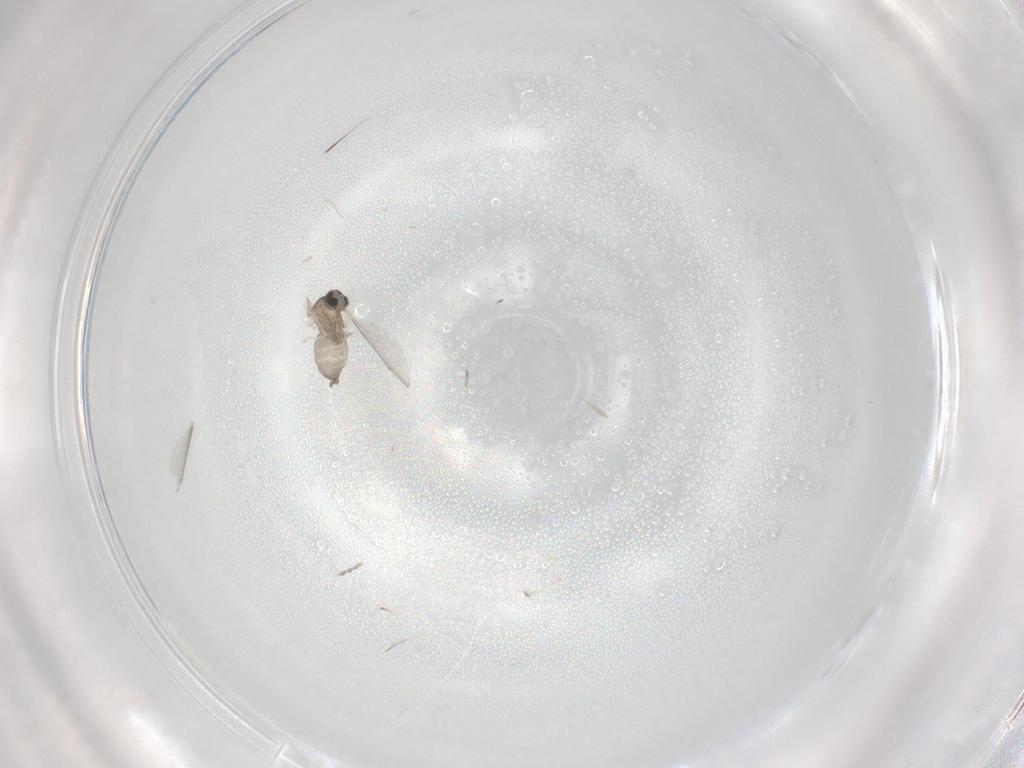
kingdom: Animalia
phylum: Arthropoda
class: Insecta
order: Diptera
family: Cecidomyiidae
